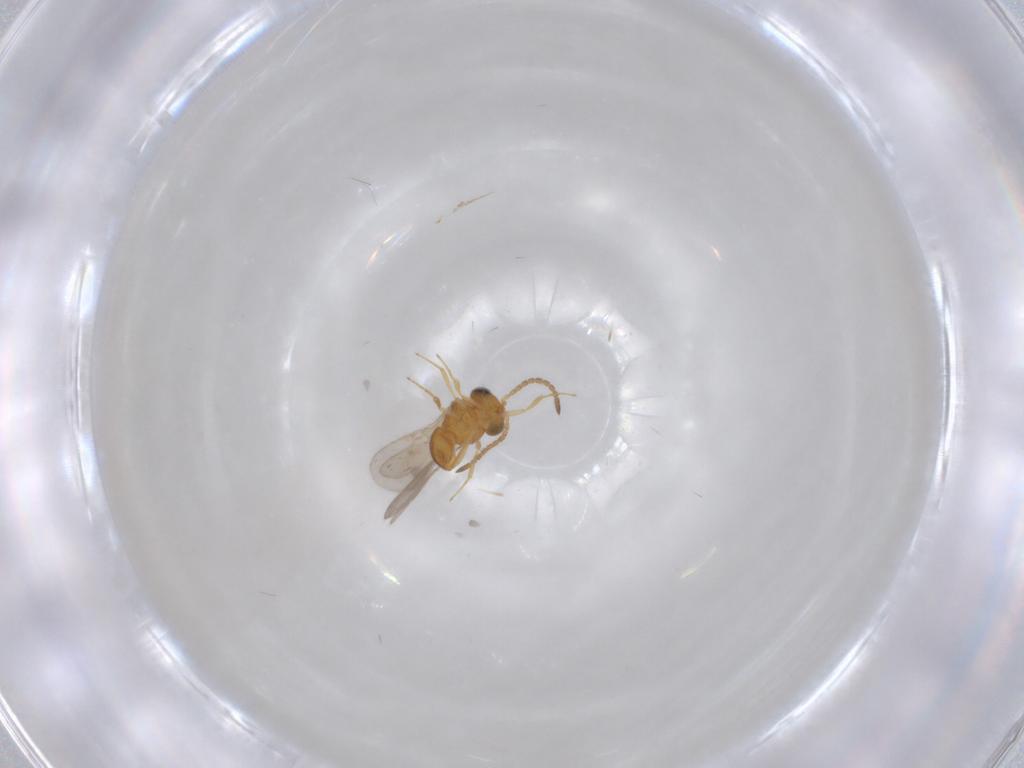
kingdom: Animalia
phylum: Arthropoda
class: Insecta
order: Hymenoptera
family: Scelionidae
